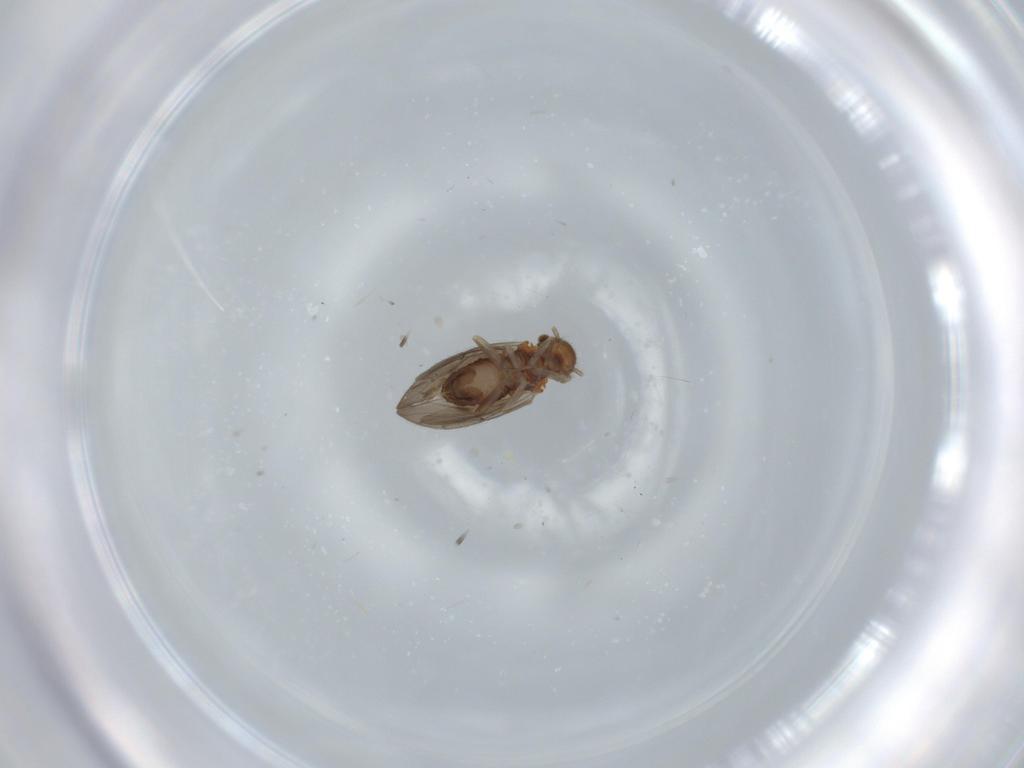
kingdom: Animalia
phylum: Arthropoda
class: Insecta
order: Psocodea
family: Ectopsocidae
